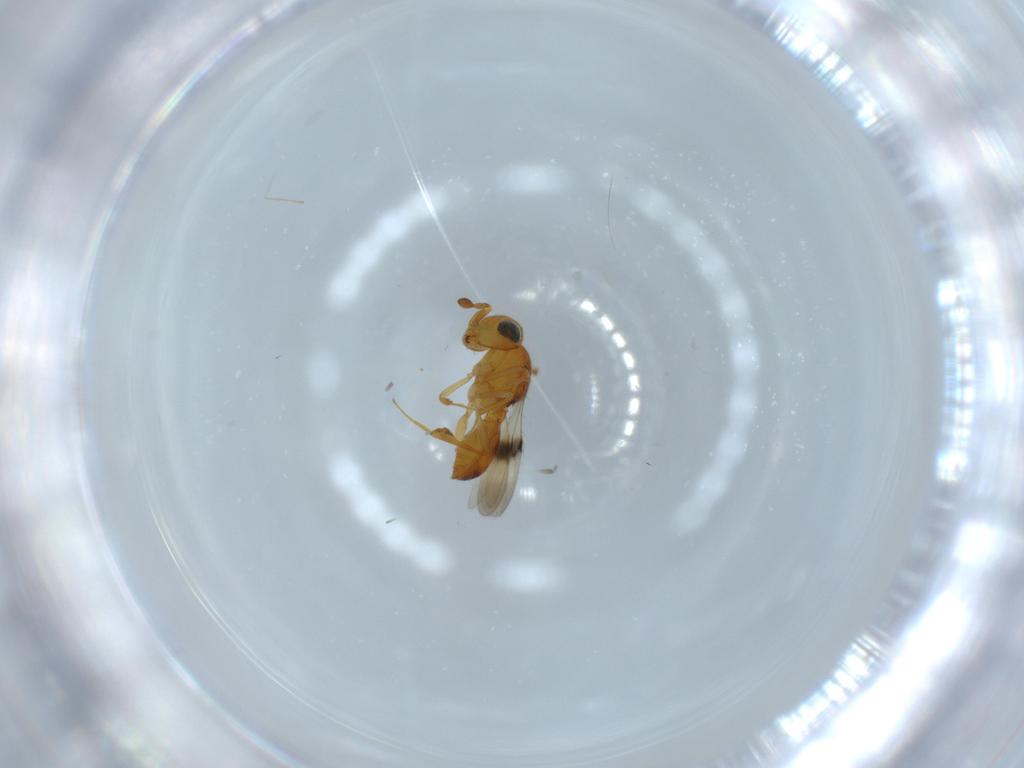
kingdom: Animalia
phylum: Arthropoda
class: Insecta
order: Hymenoptera
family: Scelionidae
